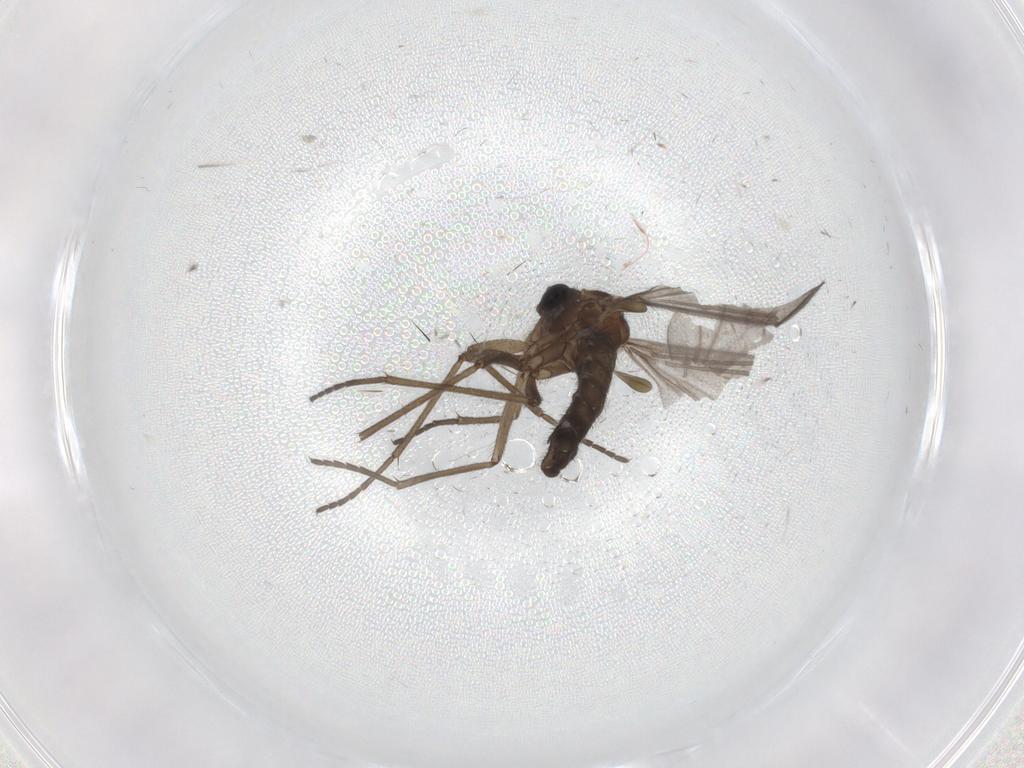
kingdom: Animalia
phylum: Arthropoda
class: Insecta
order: Diptera
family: Sciaridae
